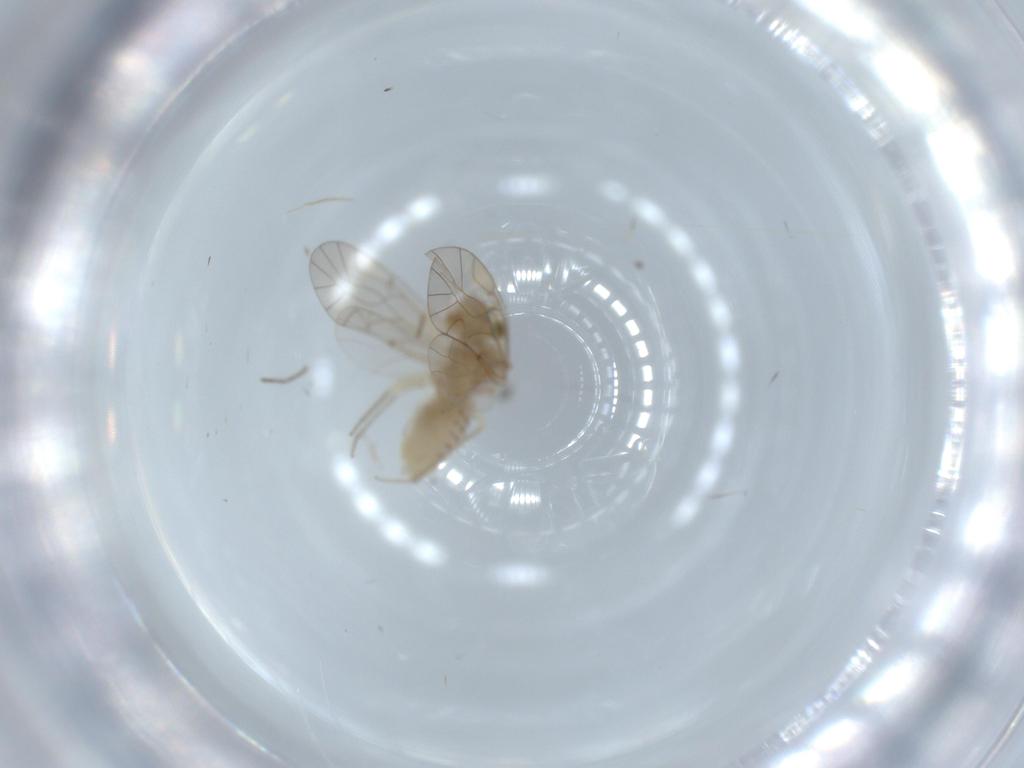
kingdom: Animalia
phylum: Arthropoda
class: Insecta
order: Psocodea
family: Lachesillidae
